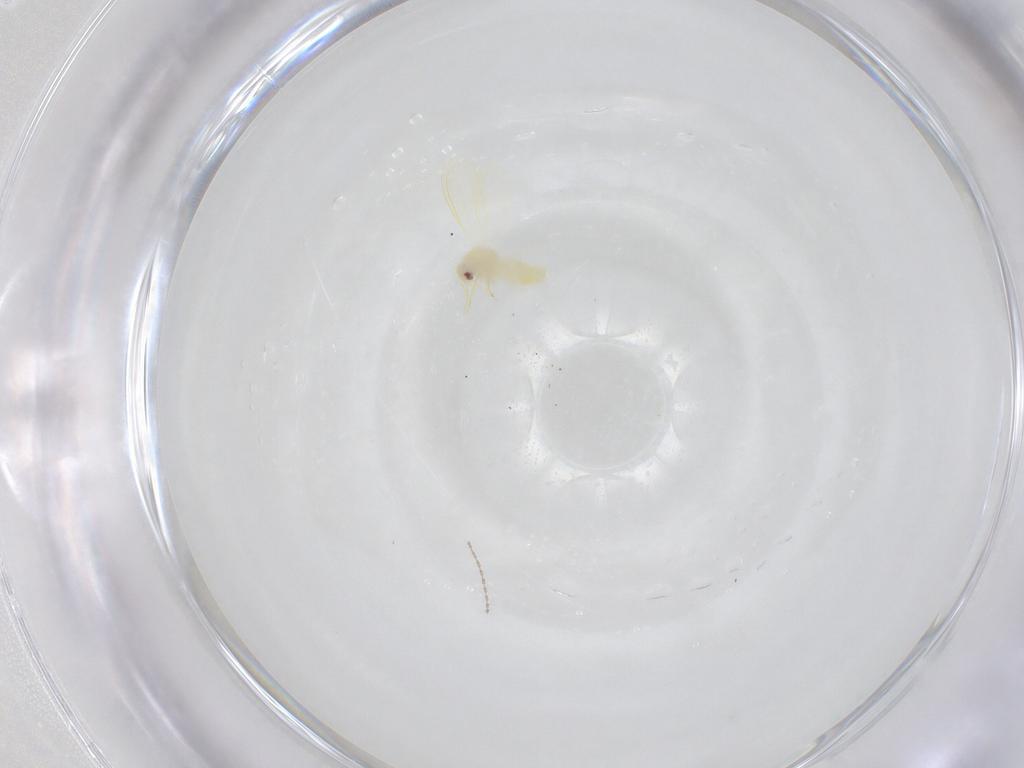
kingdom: Animalia
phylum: Arthropoda
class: Insecta
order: Hemiptera
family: Aleyrodidae
